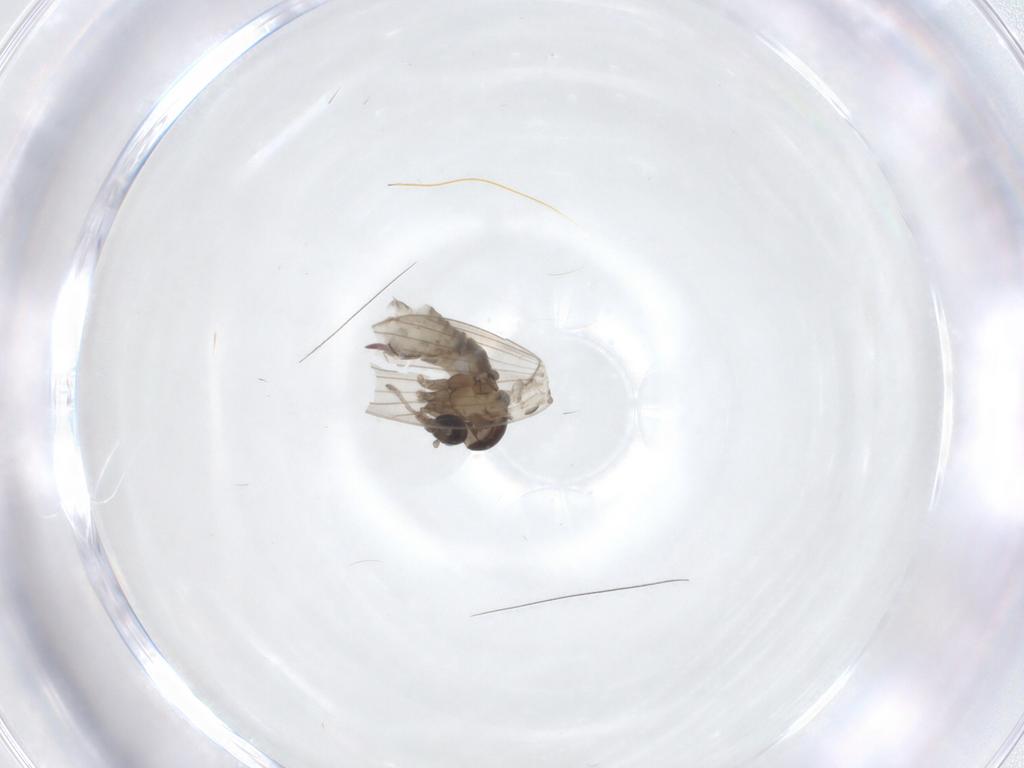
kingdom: Animalia
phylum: Arthropoda
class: Insecta
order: Diptera
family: Psychodidae
